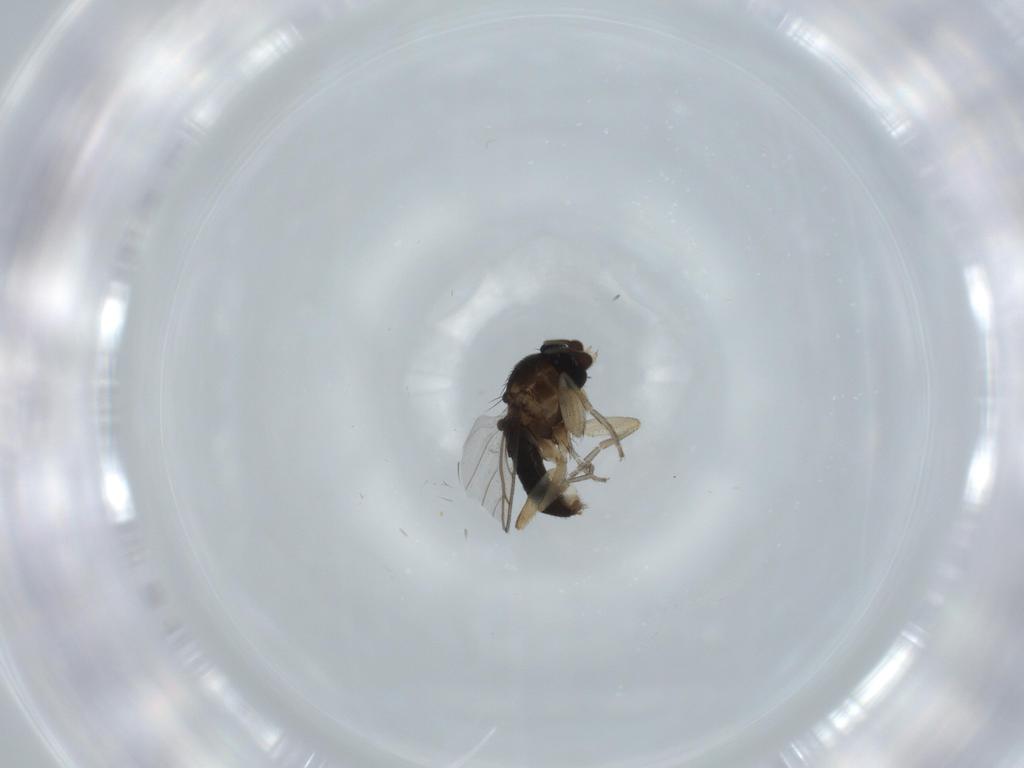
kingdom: Animalia
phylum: Arthropoda
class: Insecta
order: Diptera
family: Phoridae
